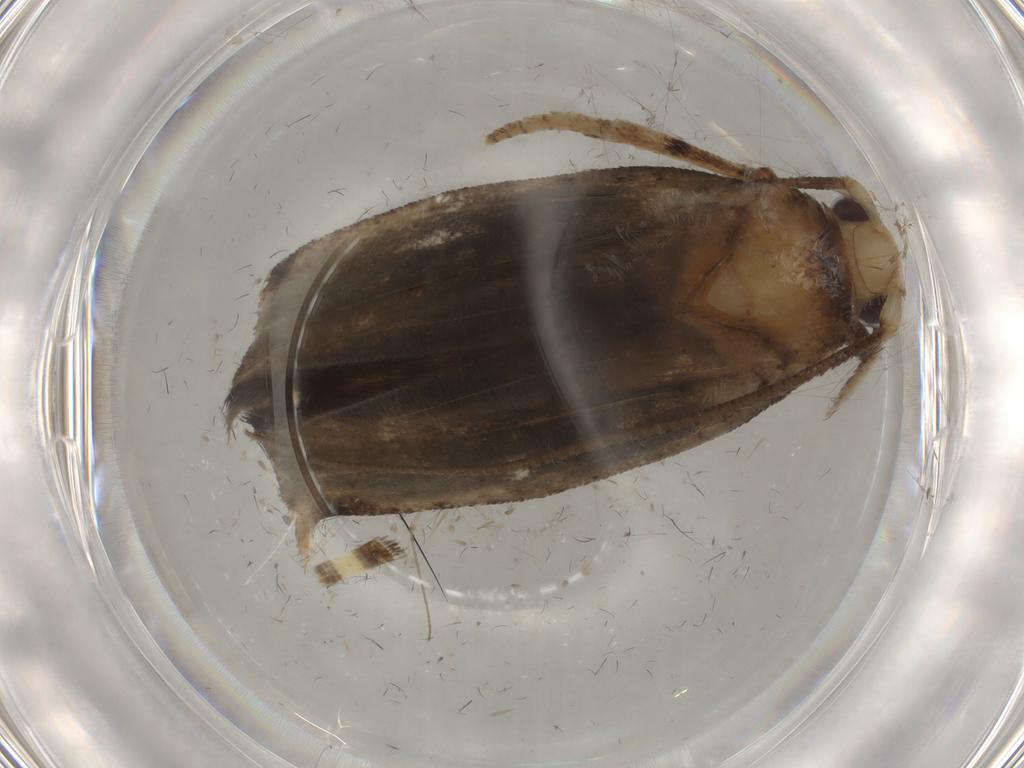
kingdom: Animalia
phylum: Arthropoda
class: Insecta
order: Lepidoptera
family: Yponomeutidae
